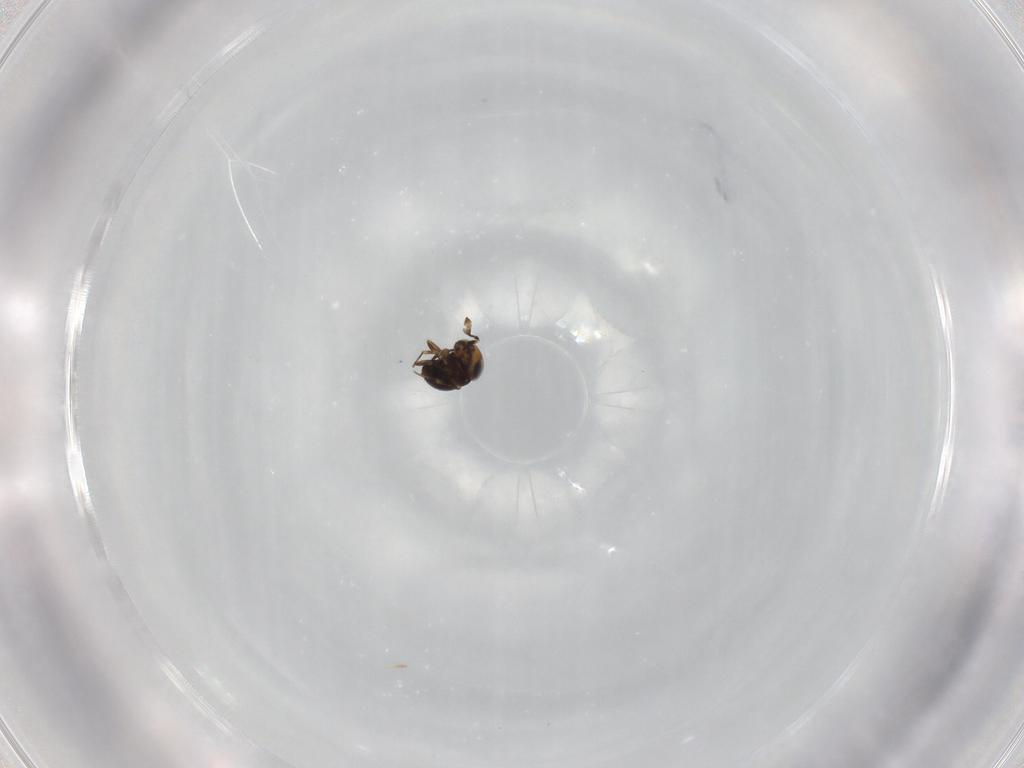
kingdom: Animalia
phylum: Arthropoda
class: Insecta
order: Hymenoptera
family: Scelionidae
